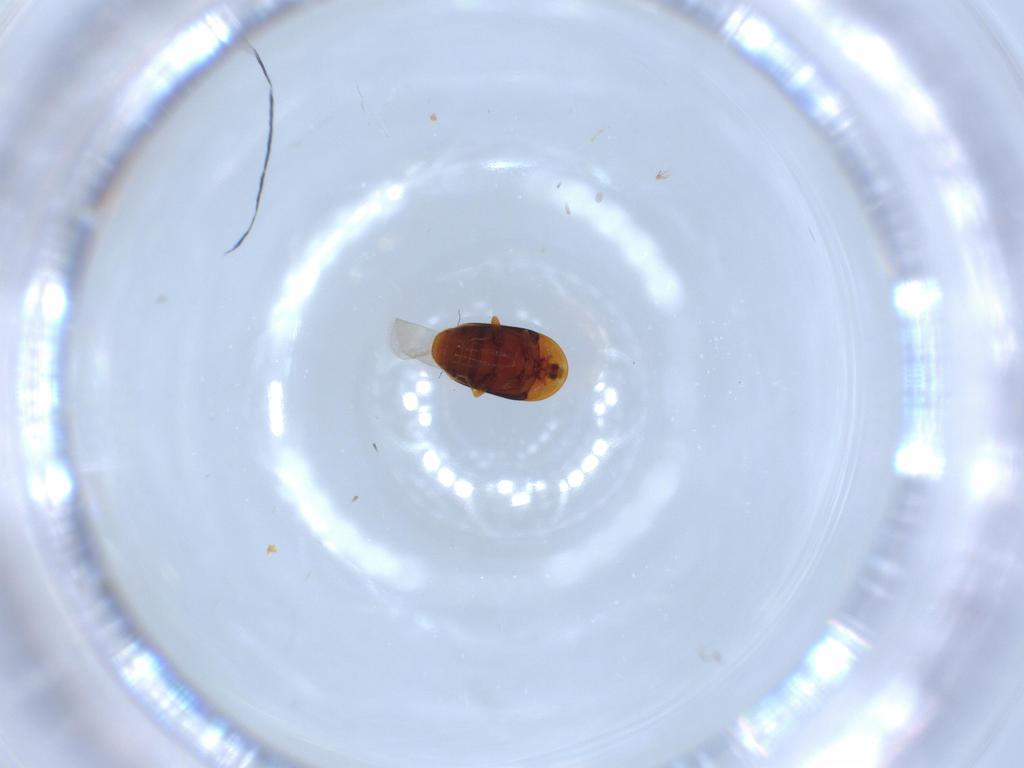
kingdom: Animalia
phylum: Arthropoda
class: Insecta
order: Coleoptera
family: Corylophidae
